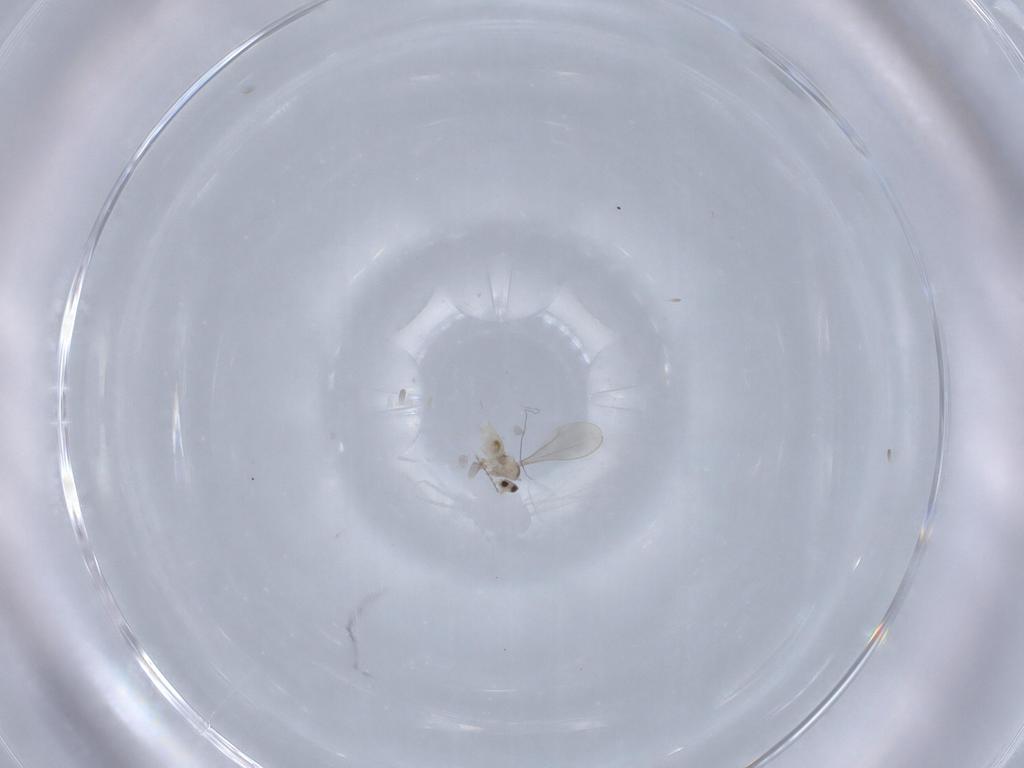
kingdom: Animalia
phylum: Arthropoda
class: Insecta
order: Diptera
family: Cecidomyiidae
